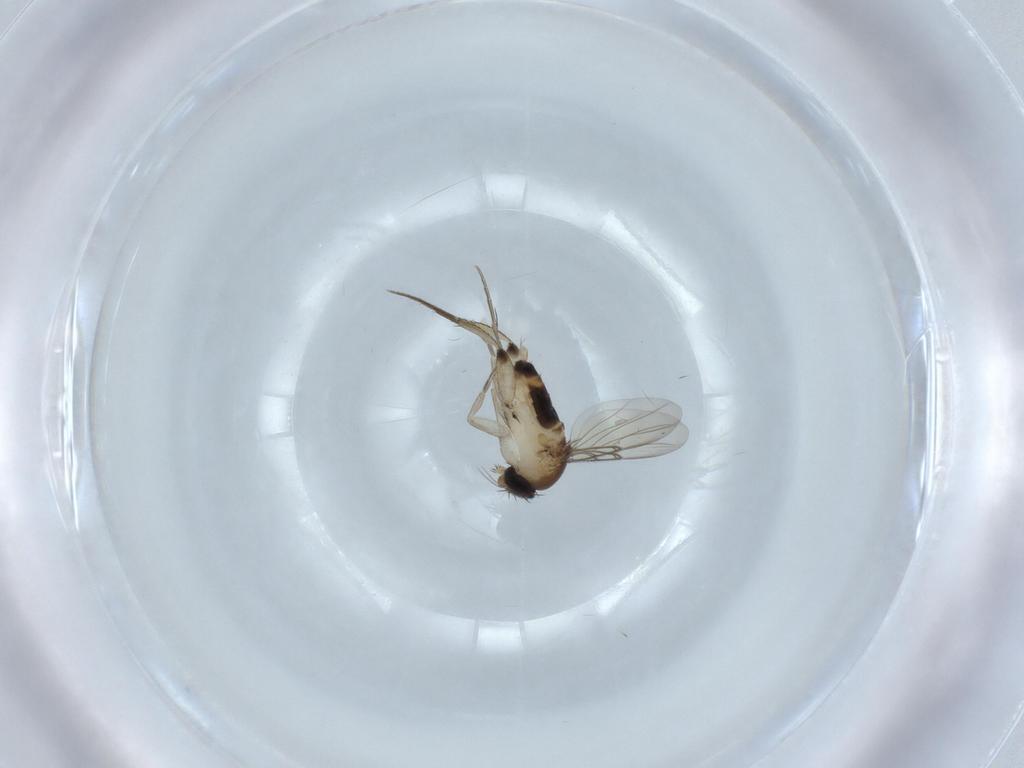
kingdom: Animalia
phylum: Arthropoda
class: Insecta
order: Diptera
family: Phoridae
